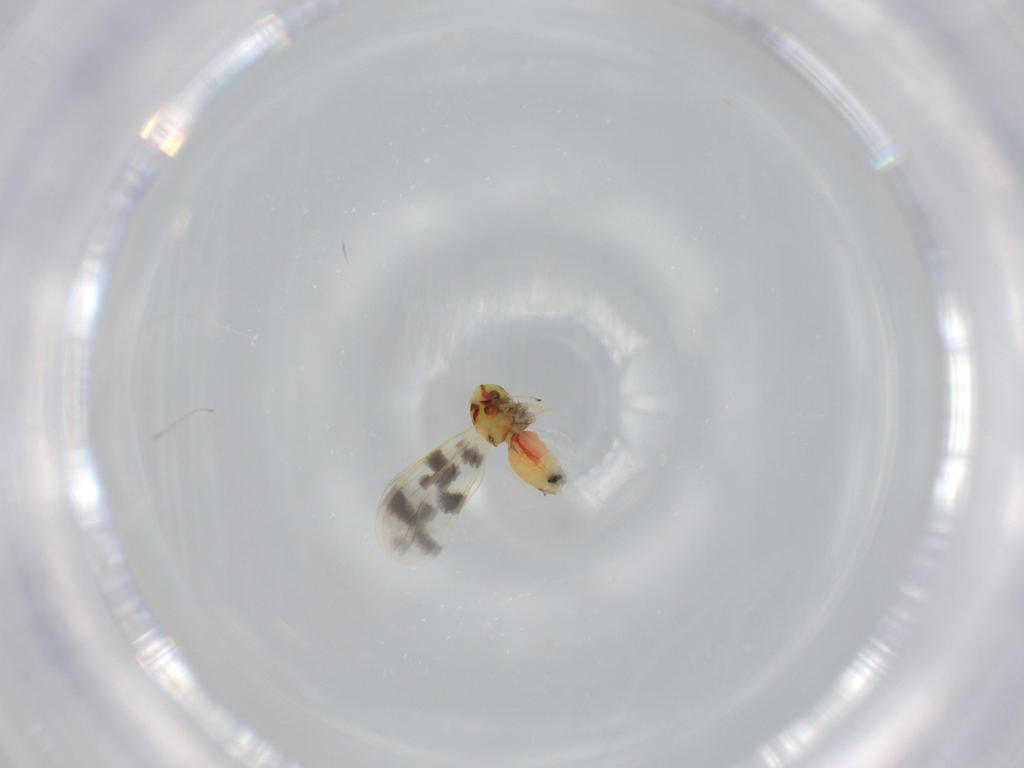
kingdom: Animalia
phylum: Arthropoda
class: Insecta
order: Hemiptera
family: Aleyrodidae
